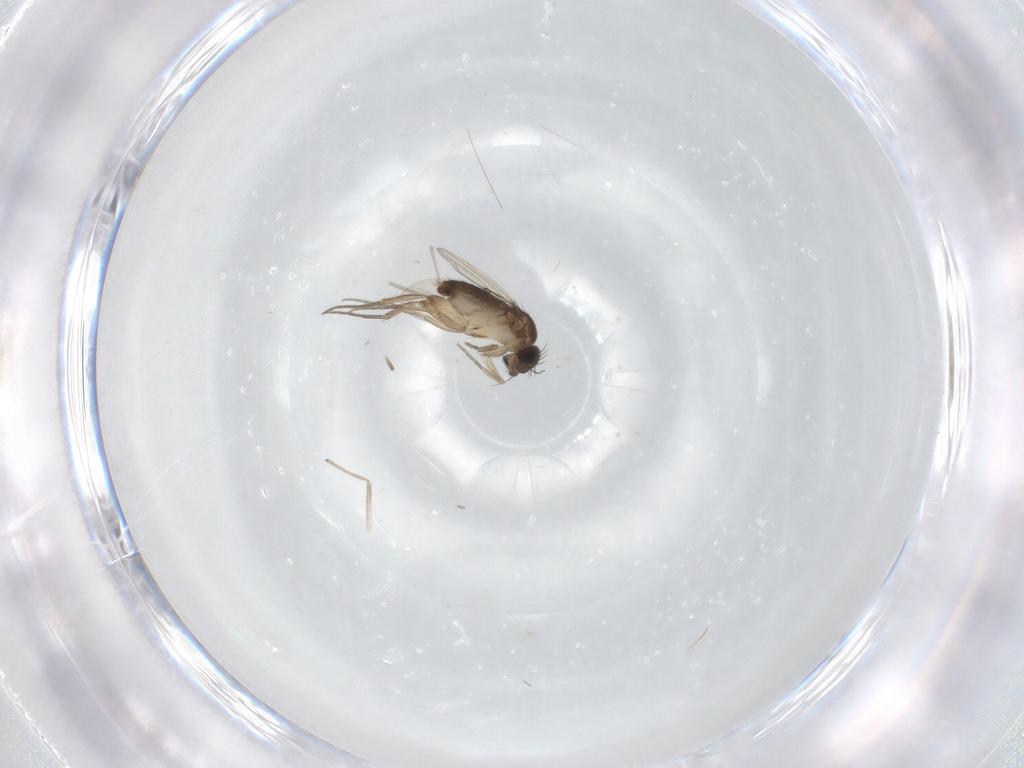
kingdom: Animalia
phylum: Arthropoda
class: Insecta
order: Diptera
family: Phoridae
